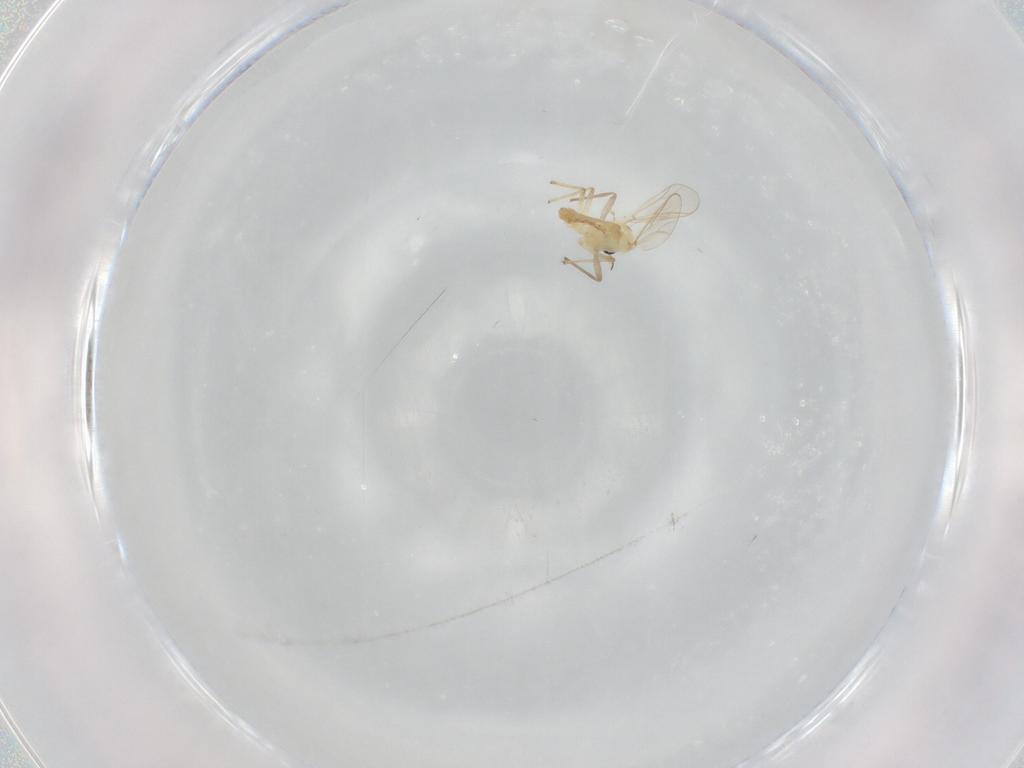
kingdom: Animalia
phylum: Arthropoda
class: Insecta
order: Diptera
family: Chironomidae
